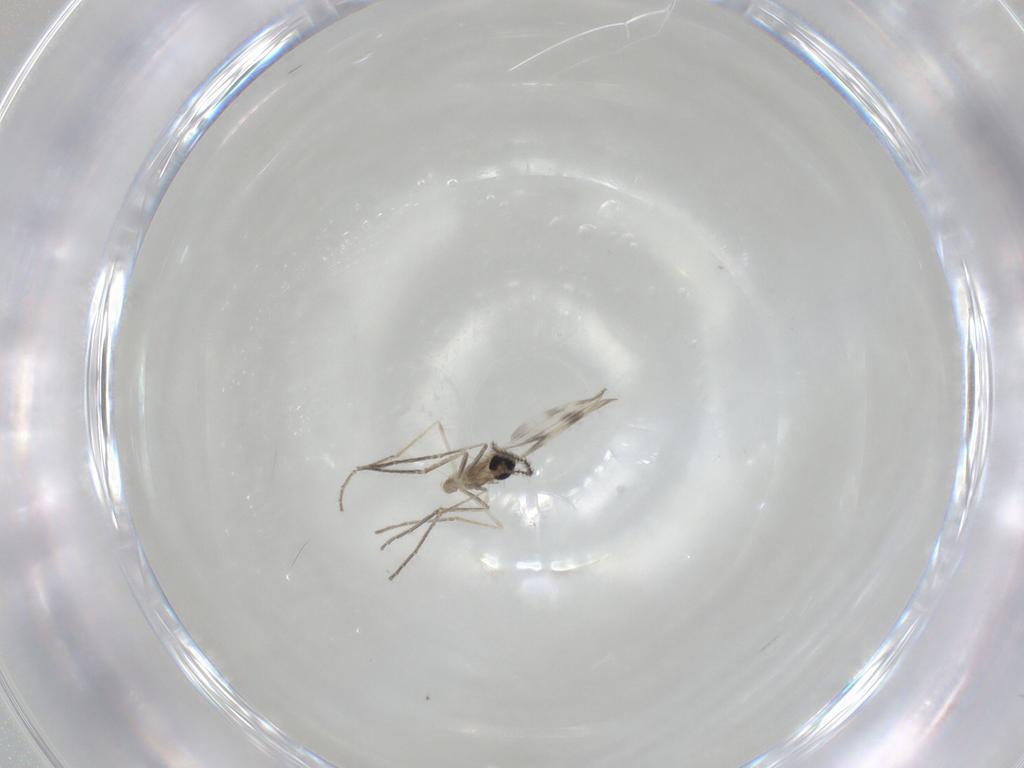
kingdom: Animalia
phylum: Arthropoda
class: Insecta
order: Diptera
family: Cecidomyiidae
